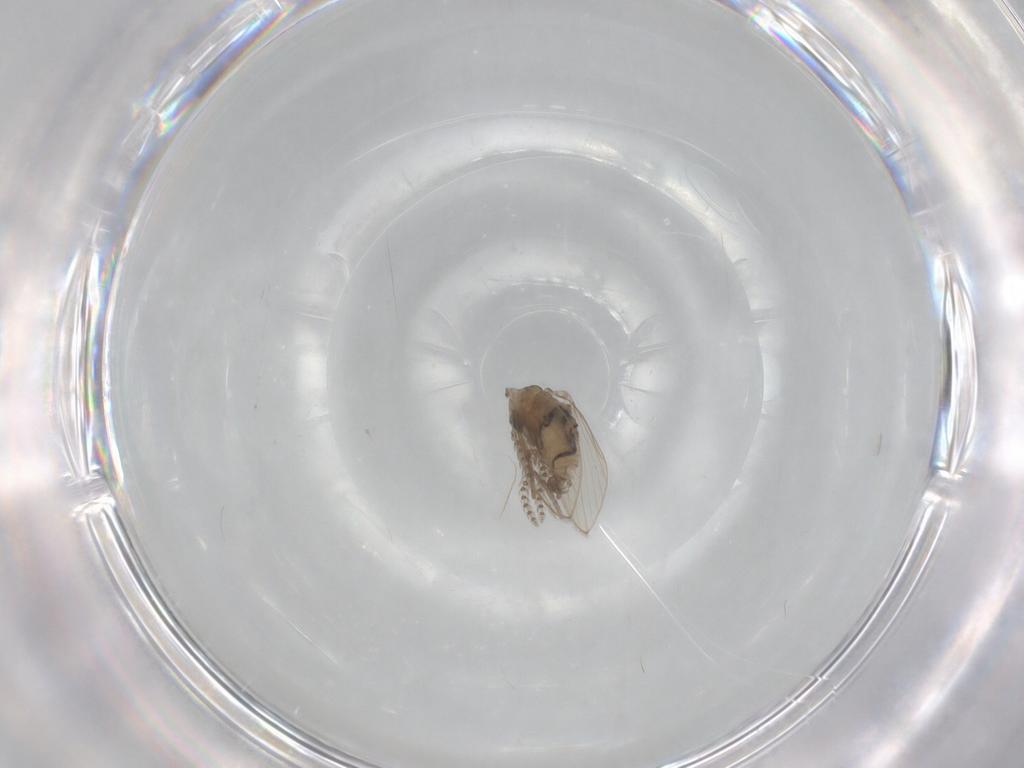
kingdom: Animalia
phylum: Arthropoda
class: Insecta
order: Diptera
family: Psychodidae
